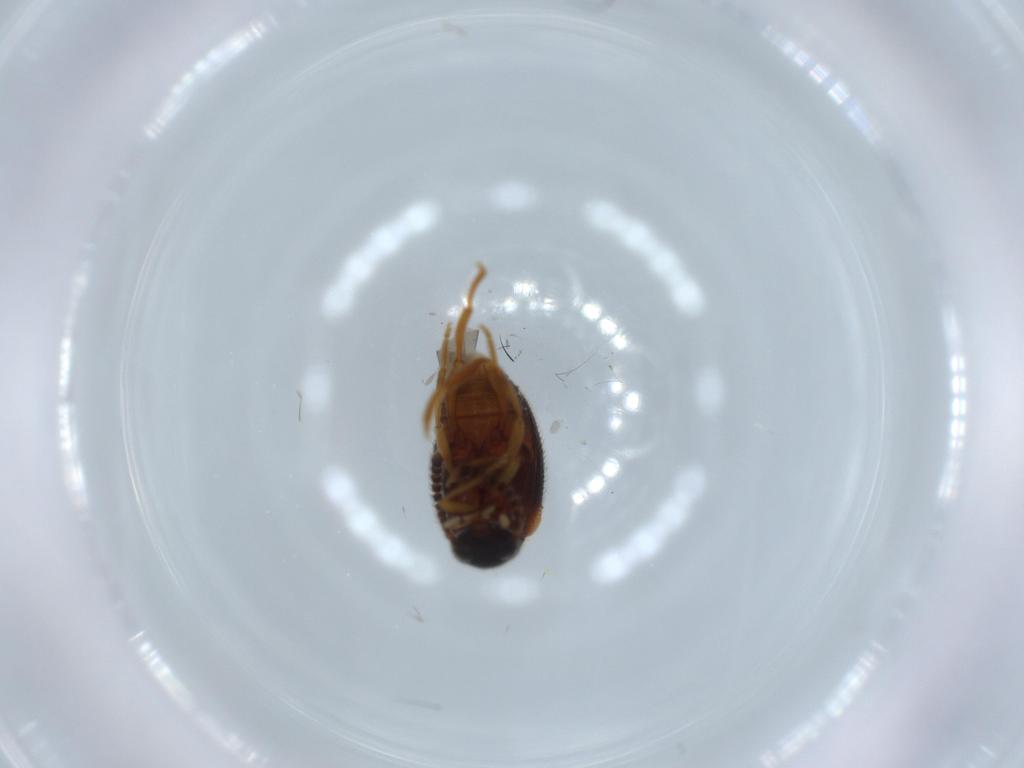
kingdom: Animalia
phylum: Arthropoda
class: Insecta
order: Coleoptera
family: Aderidae
